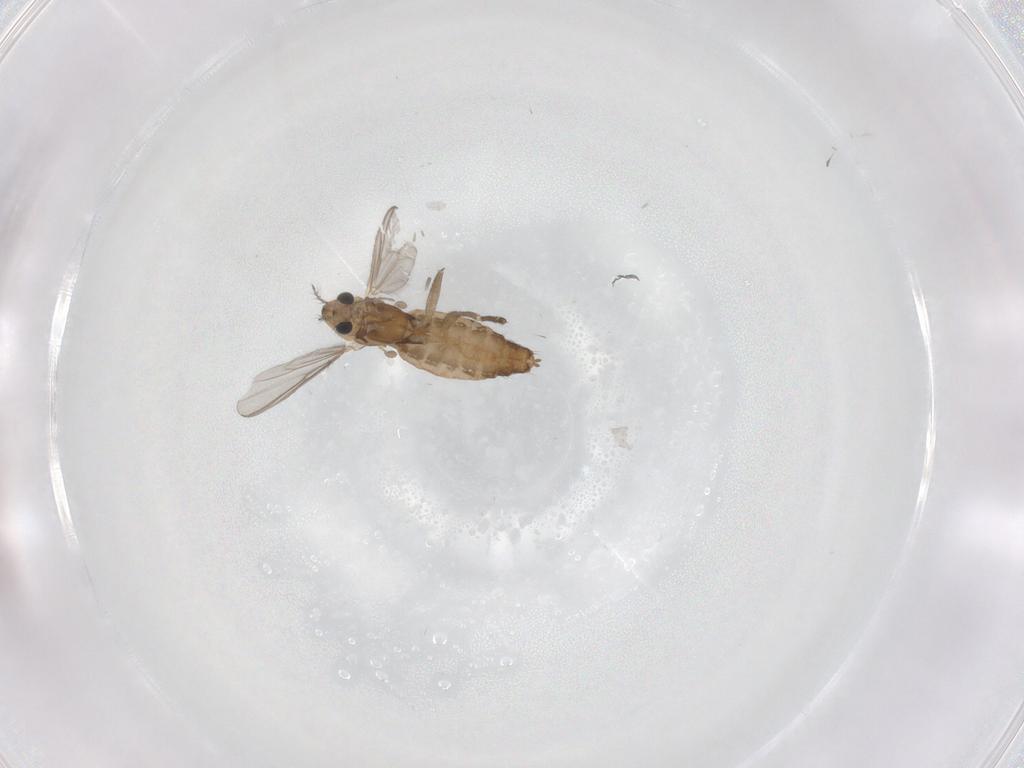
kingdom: Animalia
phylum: Arthropoda
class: Insecta
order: Diptera
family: Chironomidae
